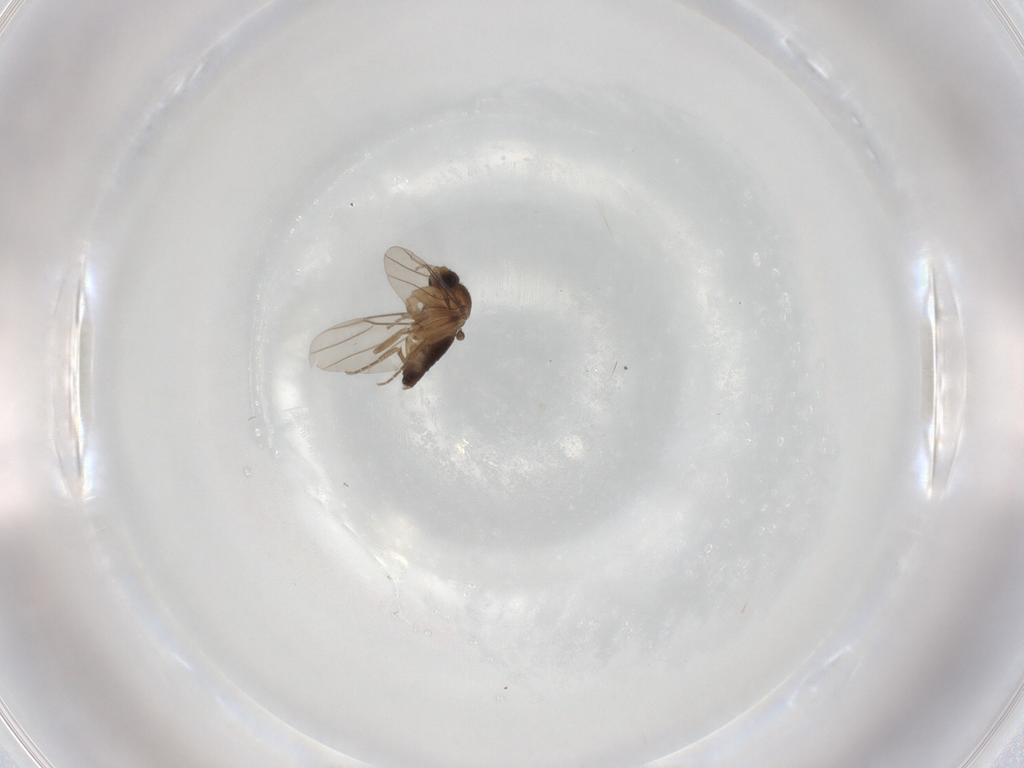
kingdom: Animalia
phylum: Arthropoda
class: Insecta
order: Diptera
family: Phoridae
